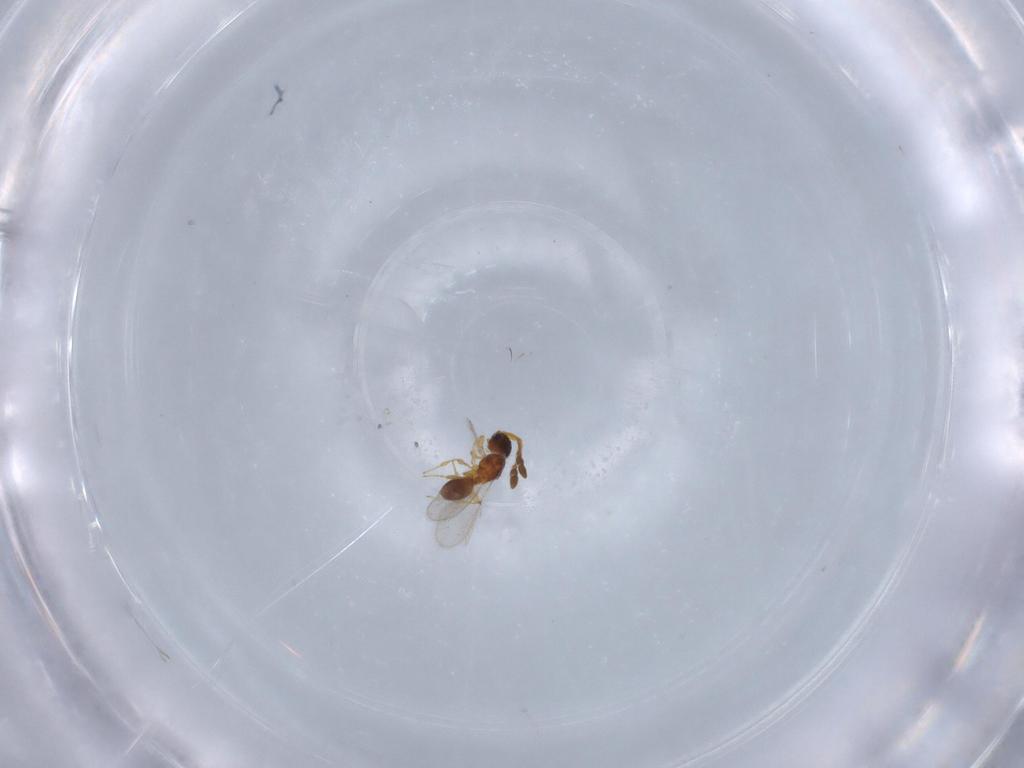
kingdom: Animalia
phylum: Arthropoda
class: Insecta
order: Hymenoptera
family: Diapriidae
